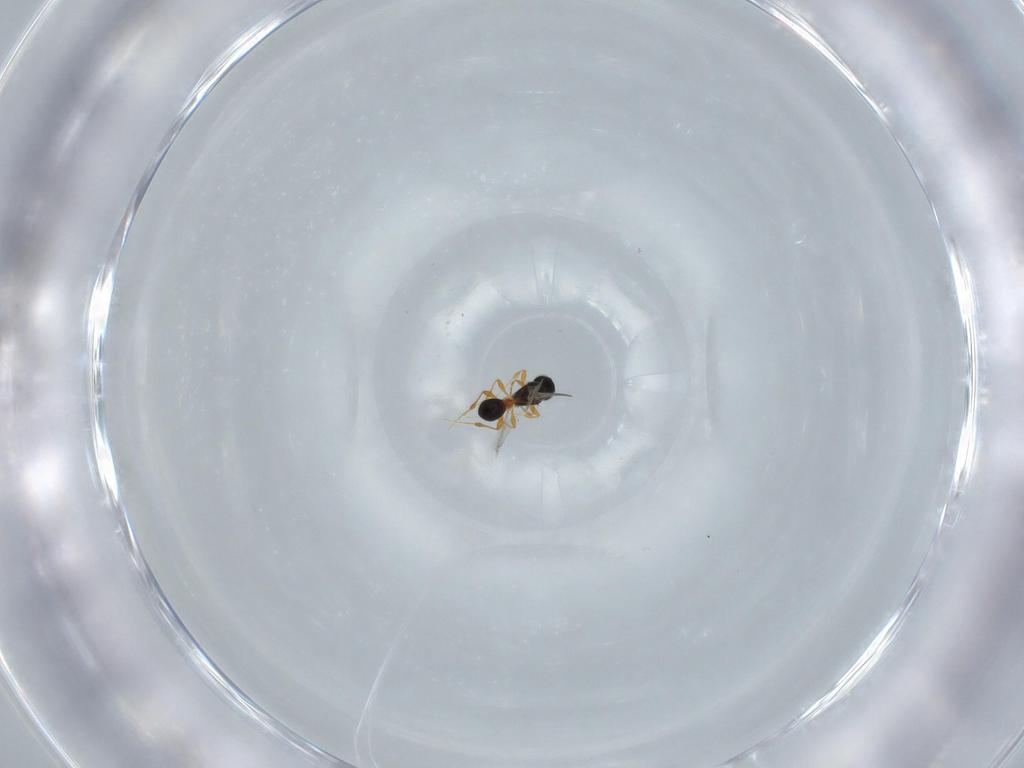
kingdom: Animalia
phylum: Arthropoda
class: Insecta
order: Hymenoptera
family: Platygastridae
